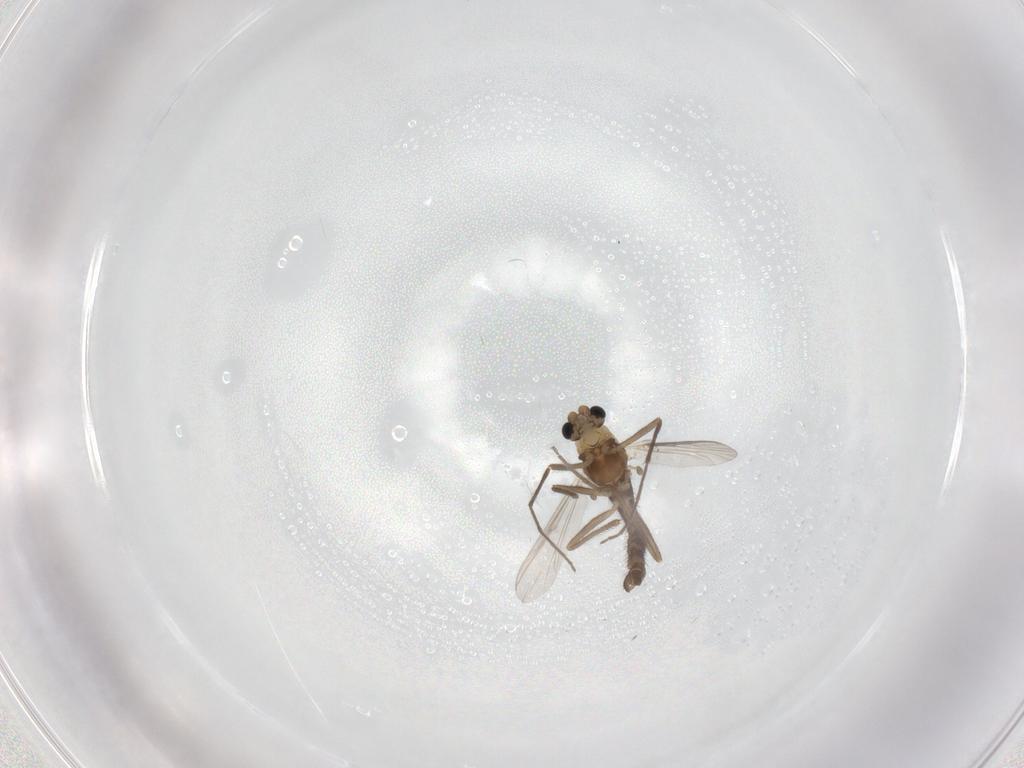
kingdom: Animalia
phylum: Arthropoda
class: Insecta
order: Diptera
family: Chironomidae
